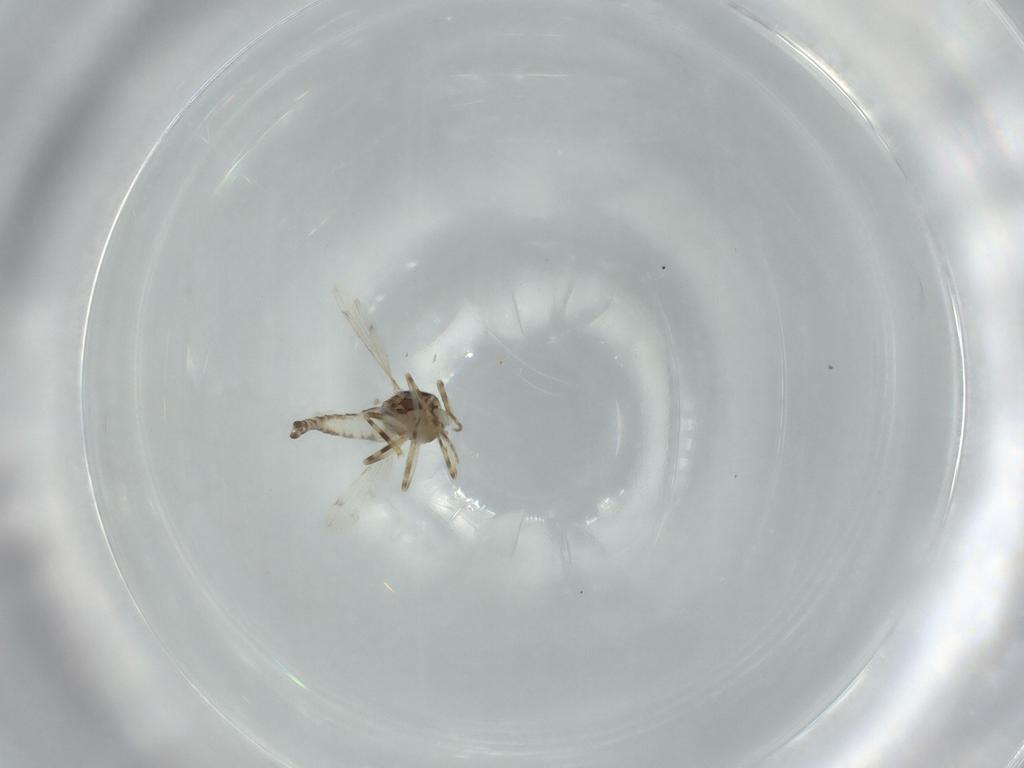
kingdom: Animalia
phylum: Arthropoda
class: Insecta
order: Diptera
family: Ceratopogonidae
